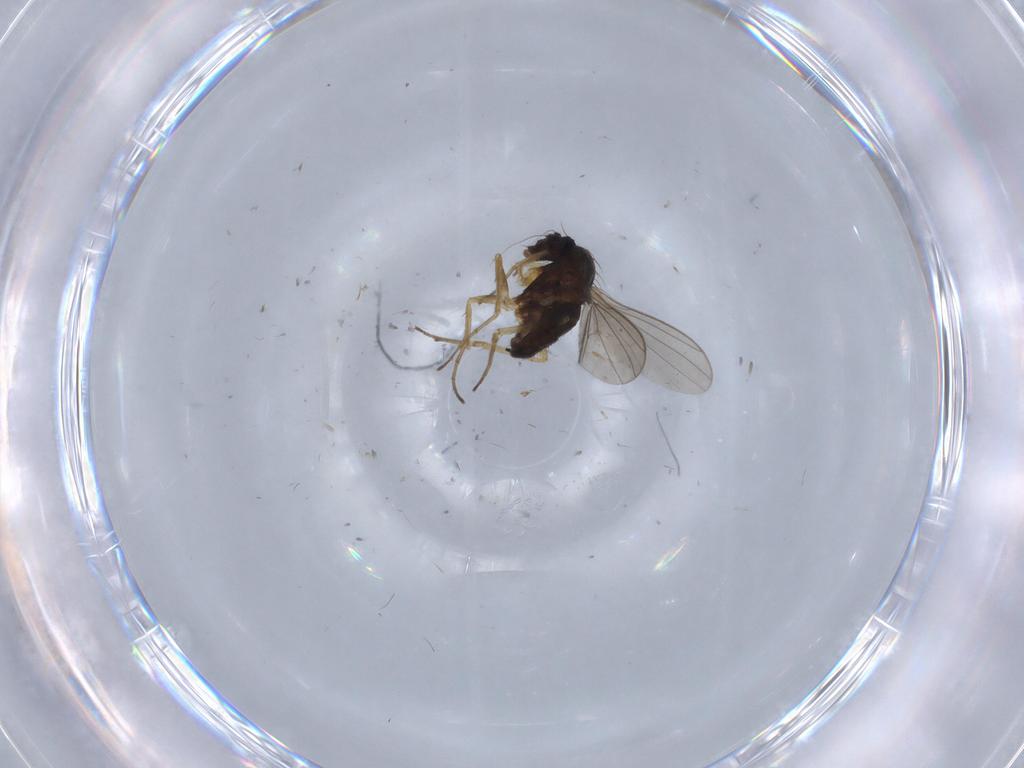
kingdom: Animalia
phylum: Arthropoda
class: Insecta
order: Diptera
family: Dolichopodidae
